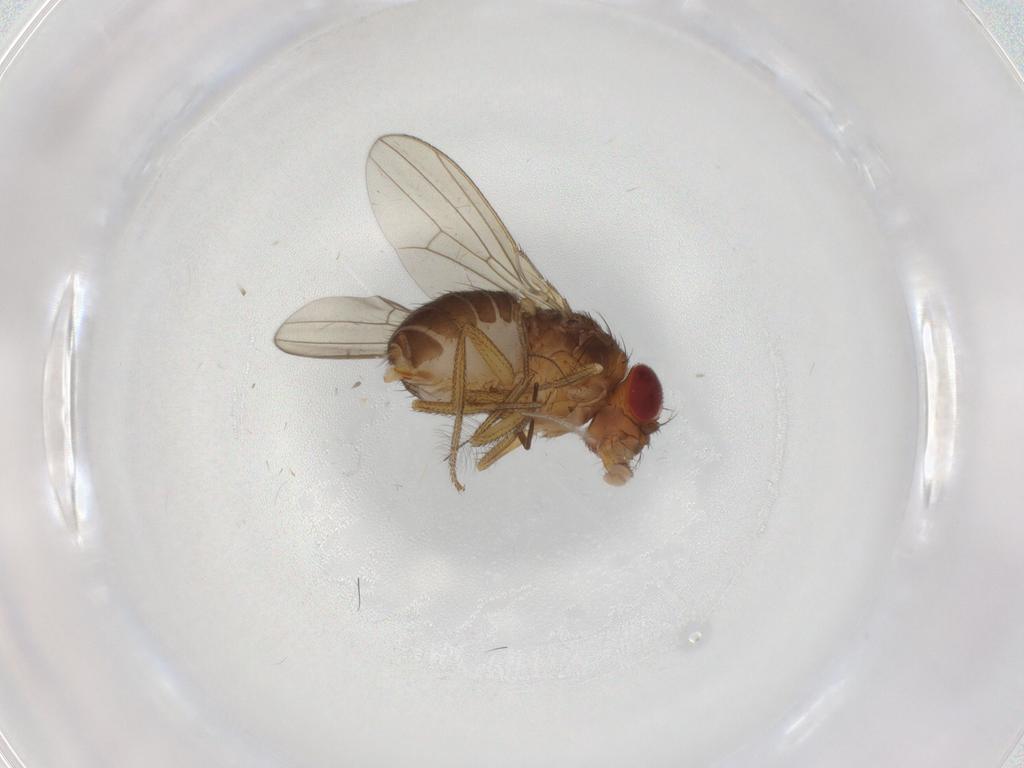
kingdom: Animalia
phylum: Arthropoda
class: Insecta
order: Diptera
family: Drosophilidae
